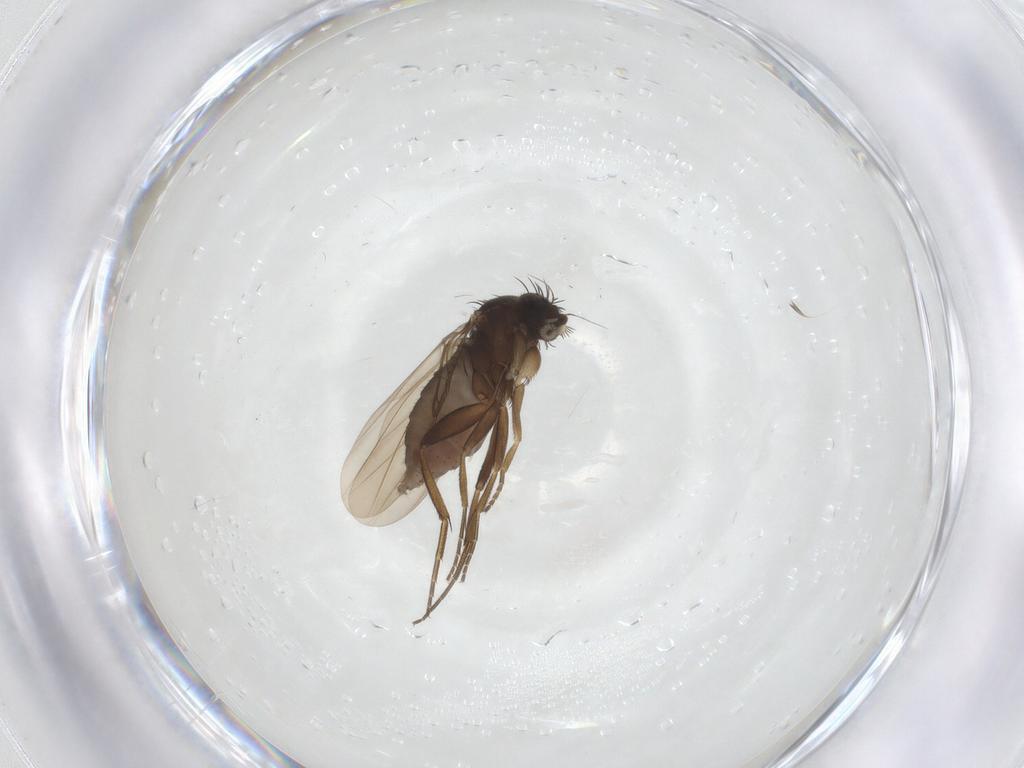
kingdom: Animalia
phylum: Arthropoda
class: Insecta
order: Diptera
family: Phoridae
